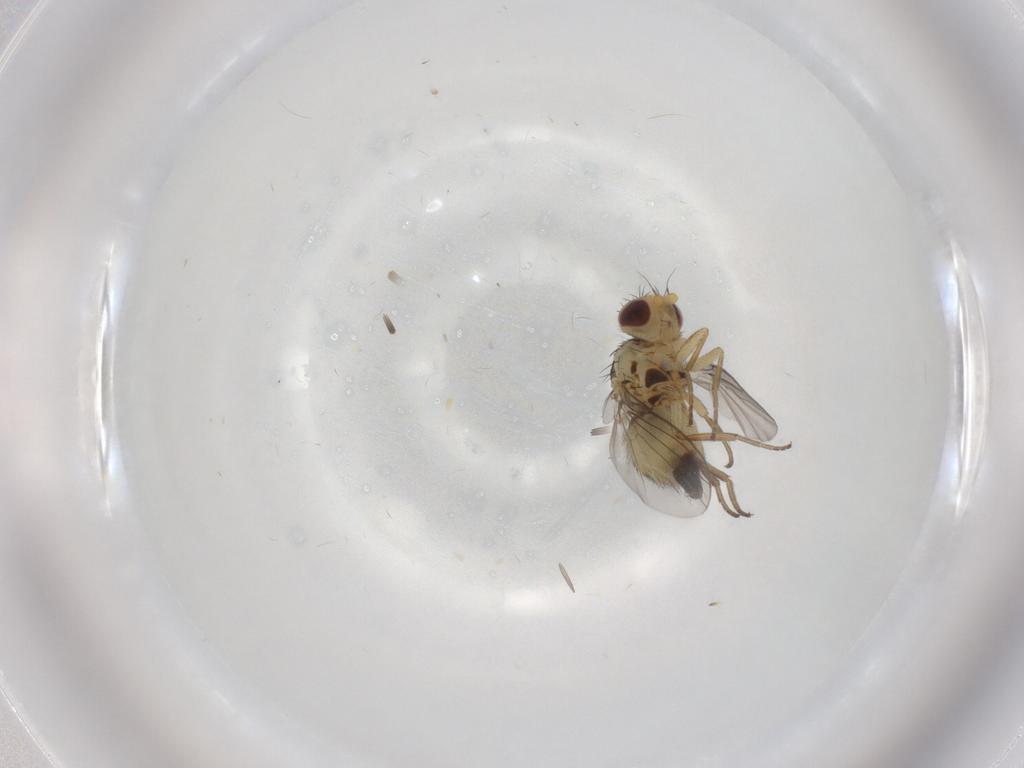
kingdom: Animalia
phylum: Arthropoda
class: Insecta
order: Diptera
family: Agromyzidae
